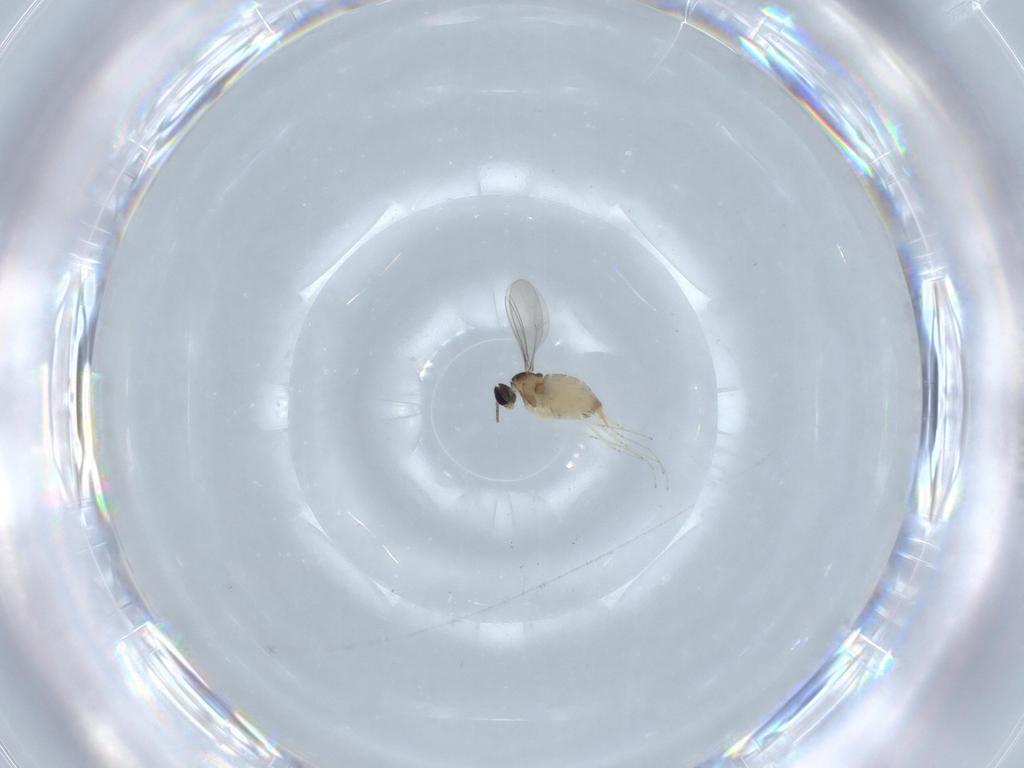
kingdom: Animalia
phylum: Arthropoda
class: Insecta
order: Diptera
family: Cecidomyiidae
